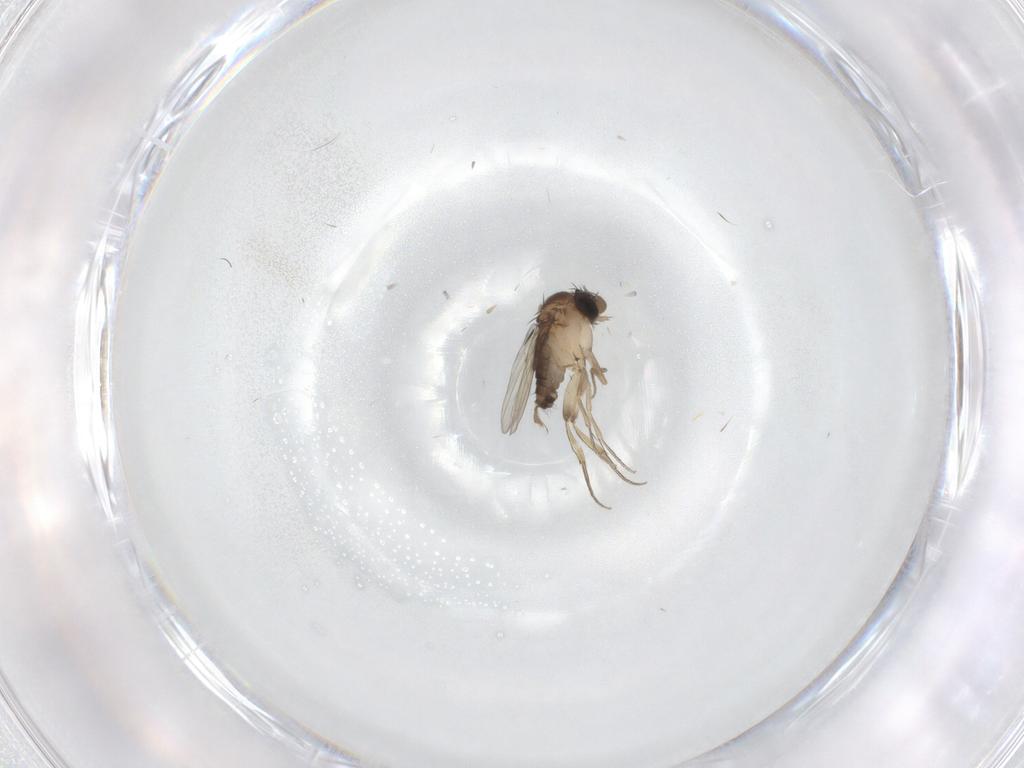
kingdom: Animalia
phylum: Arthropoda
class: Insecta
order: Diptera
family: Phoridae
